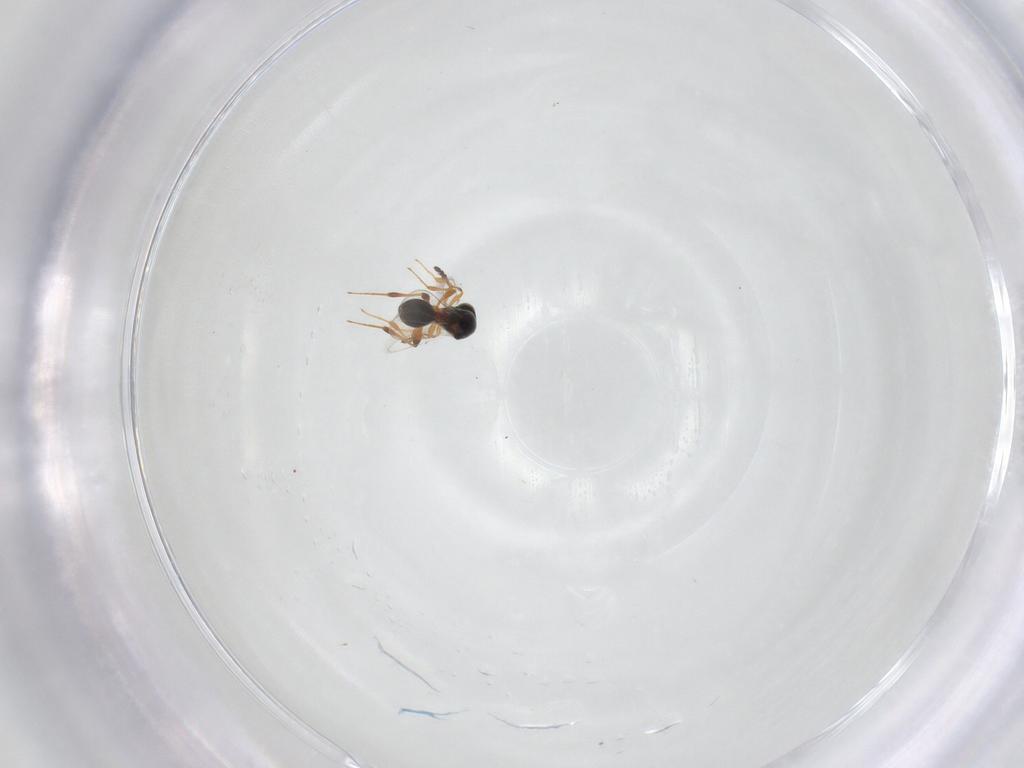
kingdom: Animalia
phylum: Arthropoda
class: Insecta
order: Hymenoptera
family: Platygastridae
